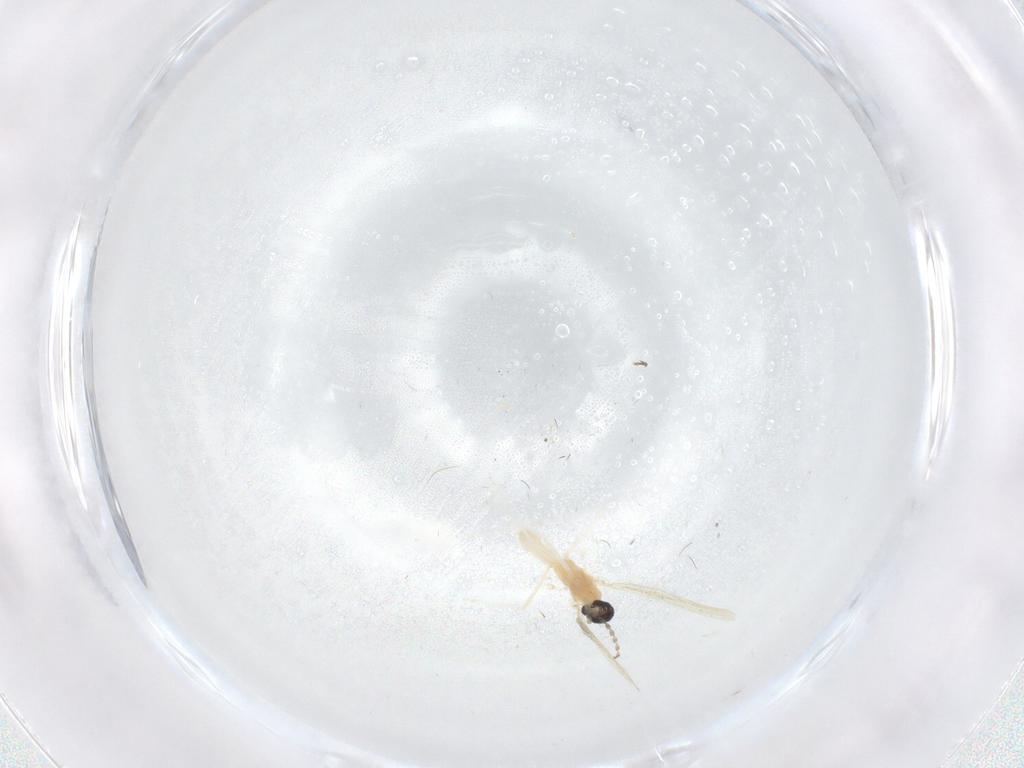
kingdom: Animalia
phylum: Arthropoda
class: Insecta
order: Diptera
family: Cecidomyiidae
